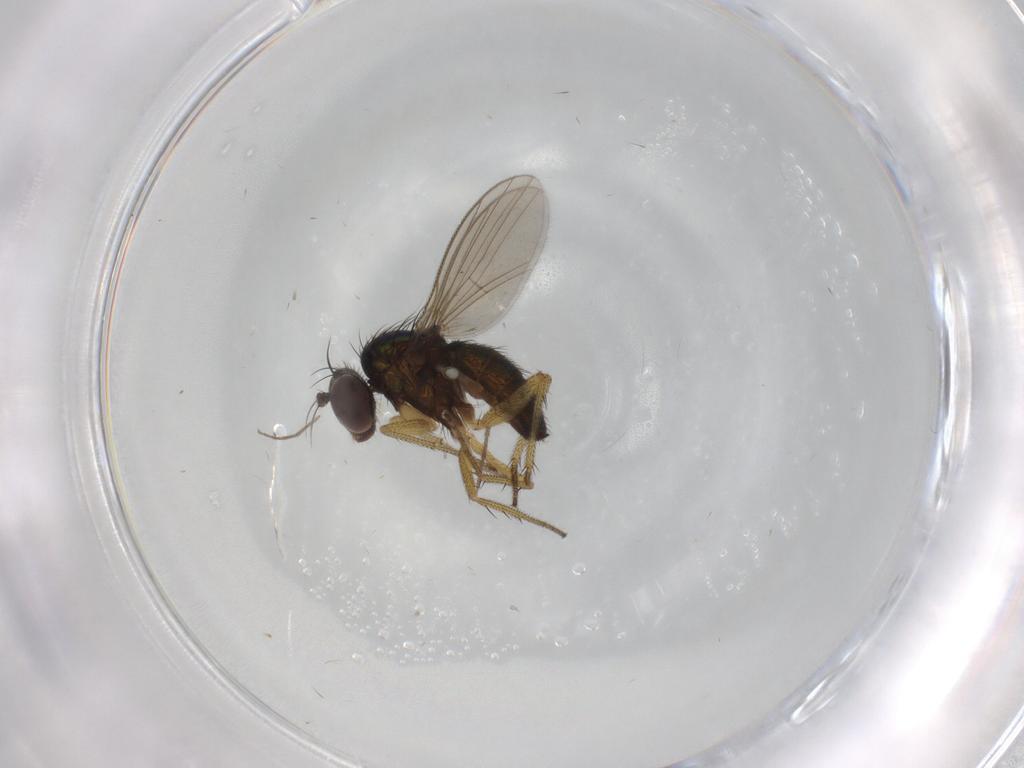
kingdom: Animalia
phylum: Arthropoda
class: Insecta
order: Diptera
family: Dolichopodidae
